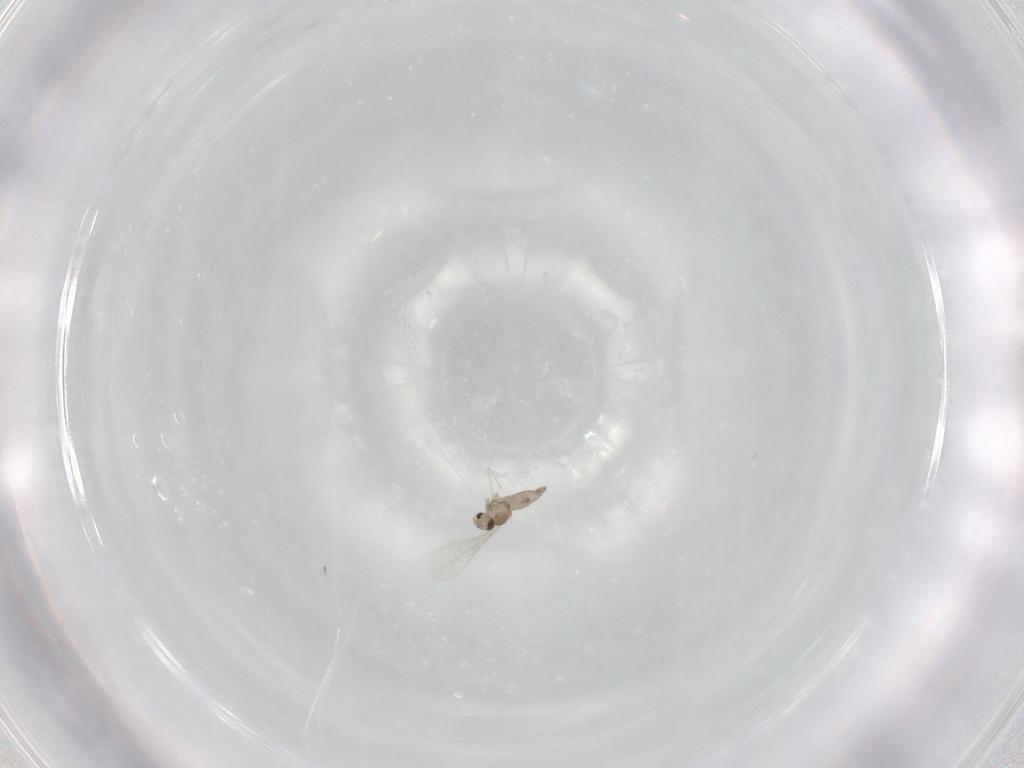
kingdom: Animalia
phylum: Arthropoda
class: Insecta
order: Diptera
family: Cecidomyiidae
